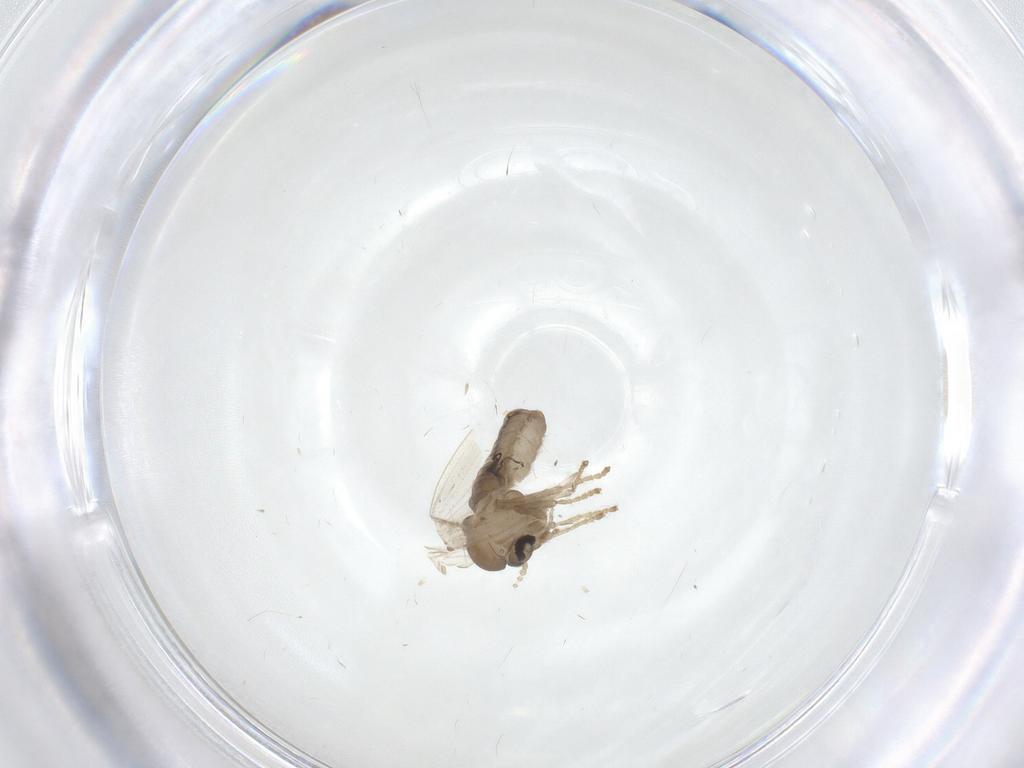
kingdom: Animalia
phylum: Arthropoda
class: Insecta
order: Diptera
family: Psychodidae
